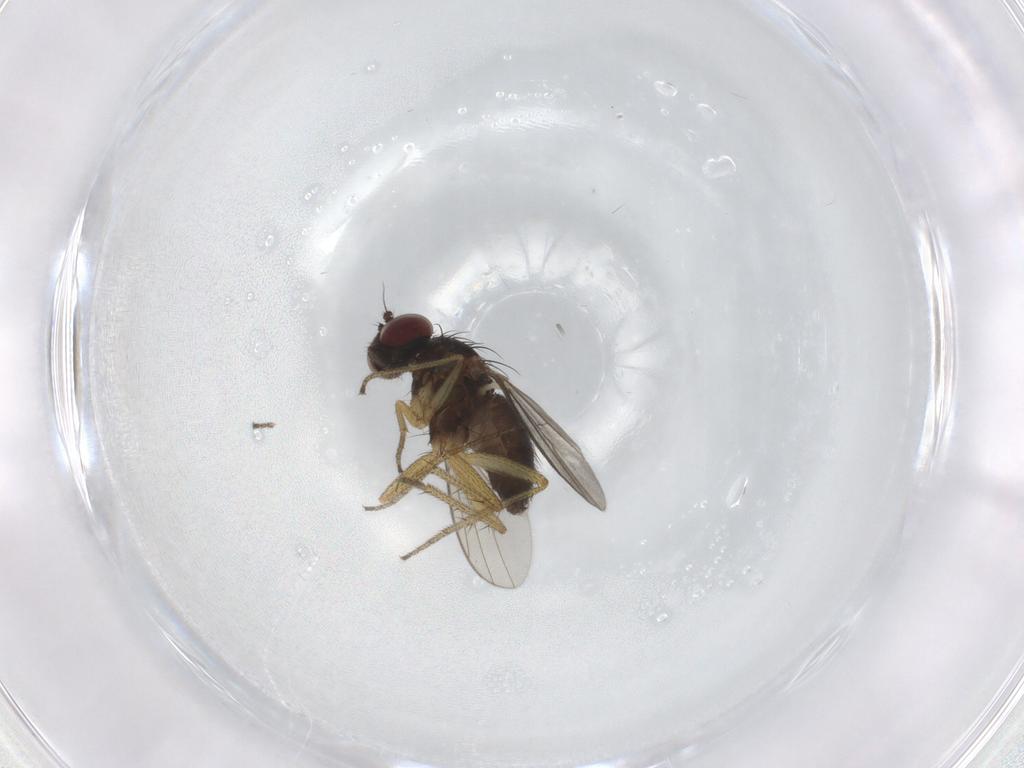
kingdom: Animalia
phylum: Arthropoda
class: Insecta
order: Diptera
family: Dolichopodidae
